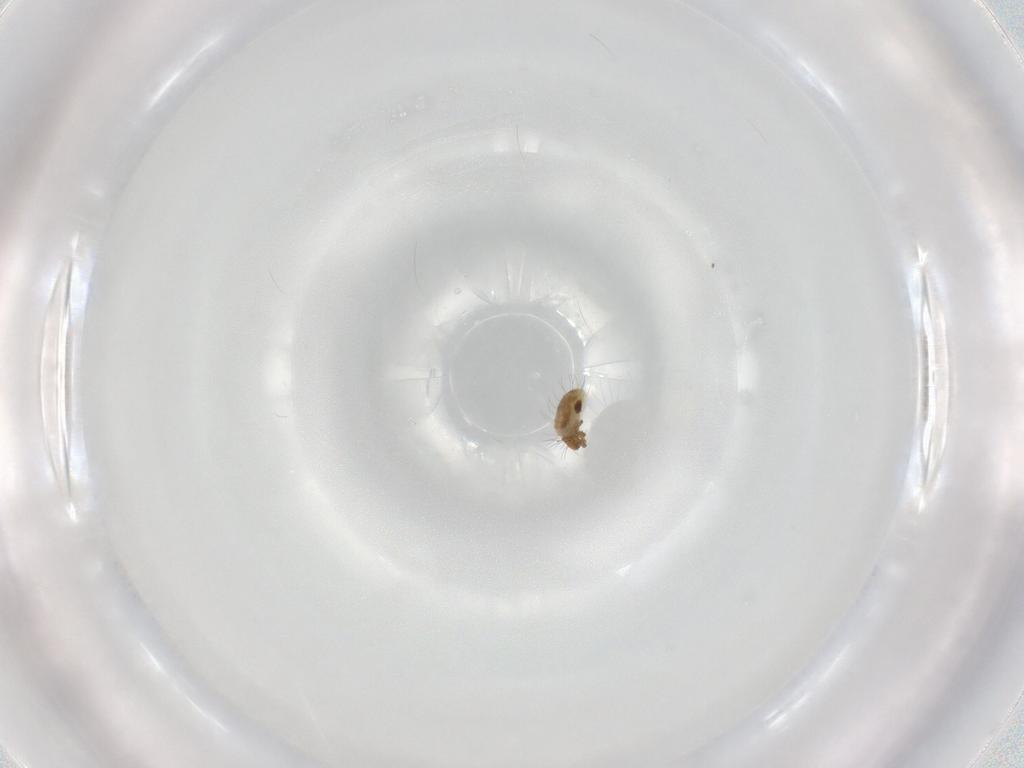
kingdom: Animalia
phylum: Arthropoda
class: Arachnida
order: Sarcoptiformes
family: Humerobatidae
